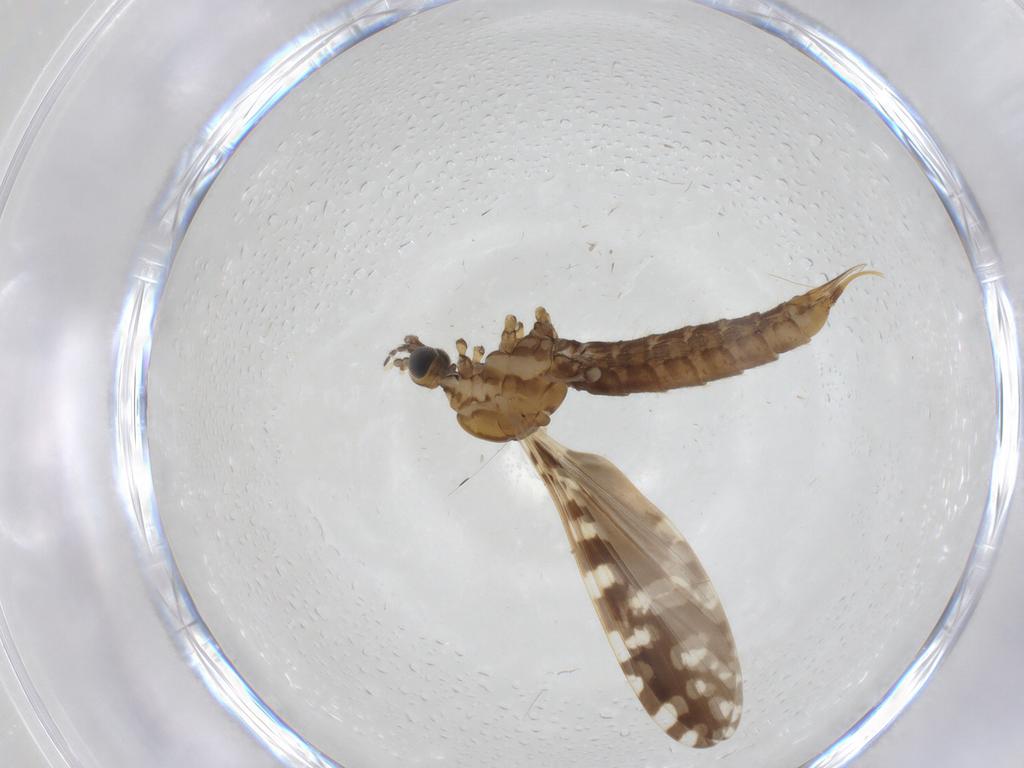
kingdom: Animalia
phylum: Arthropoda
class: Insecta
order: Diptera
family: Limoniidae
